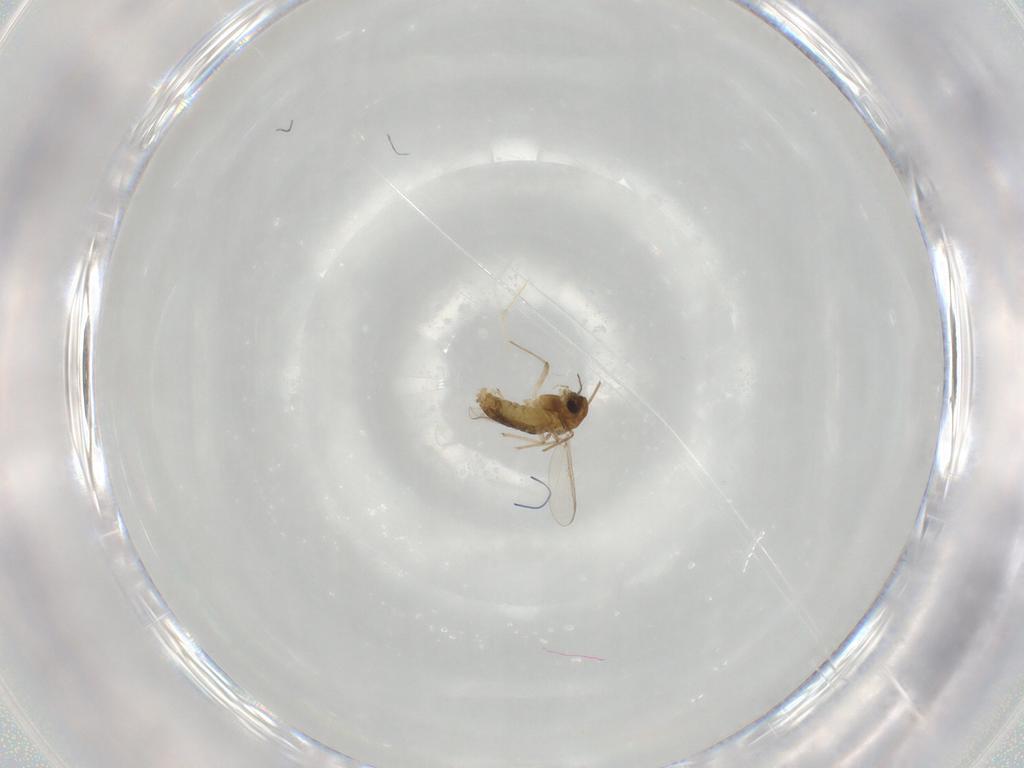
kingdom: Animalia
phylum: Arthropoda
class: Insecta
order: Diptera
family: Chironomidae
